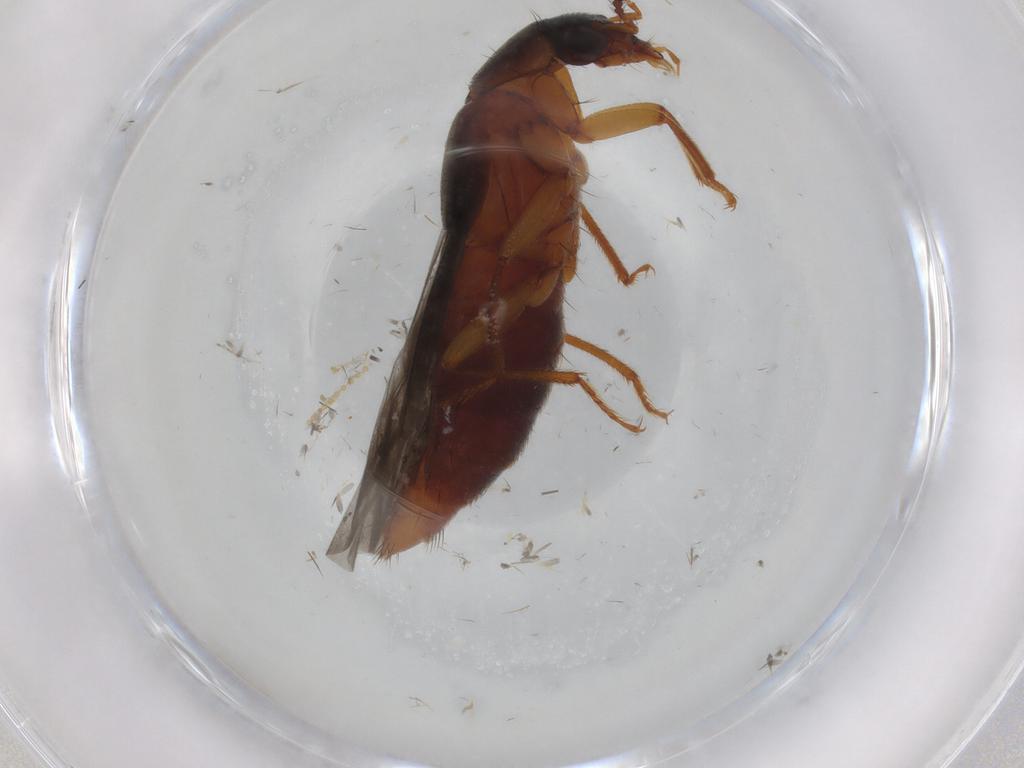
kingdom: Animalia
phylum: Arthropoda
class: Insecta
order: Coleoptera
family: Staphylinidae
